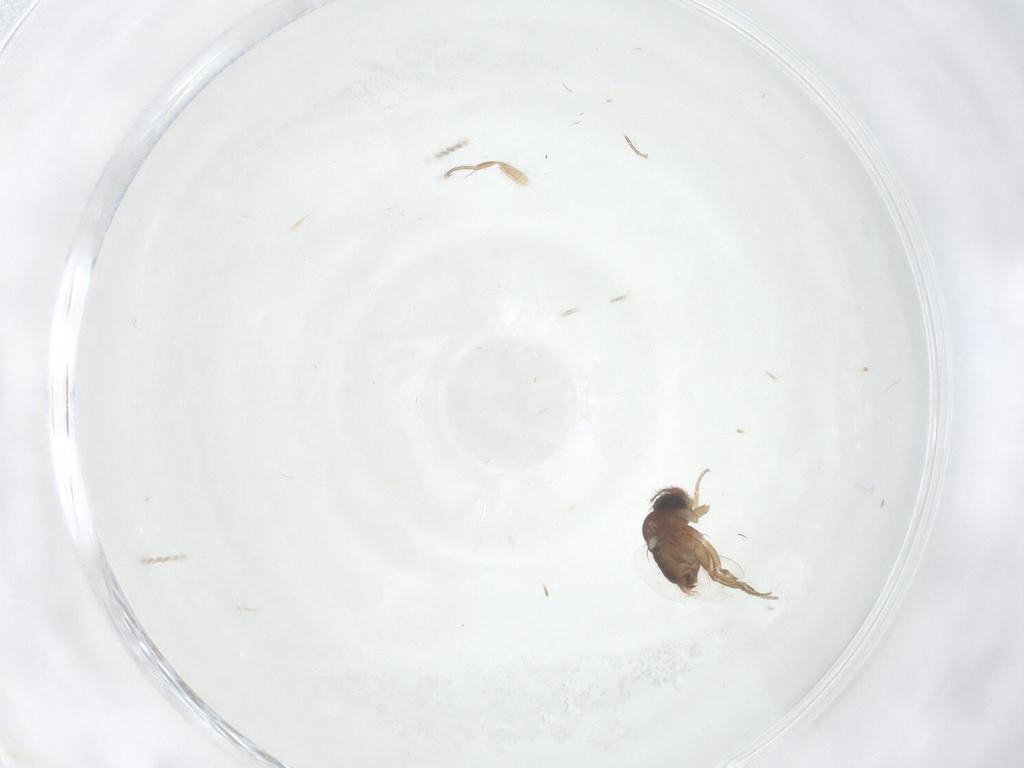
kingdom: Animalia
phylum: Arthropoda
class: Insecta
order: Diptera
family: Phoridae
